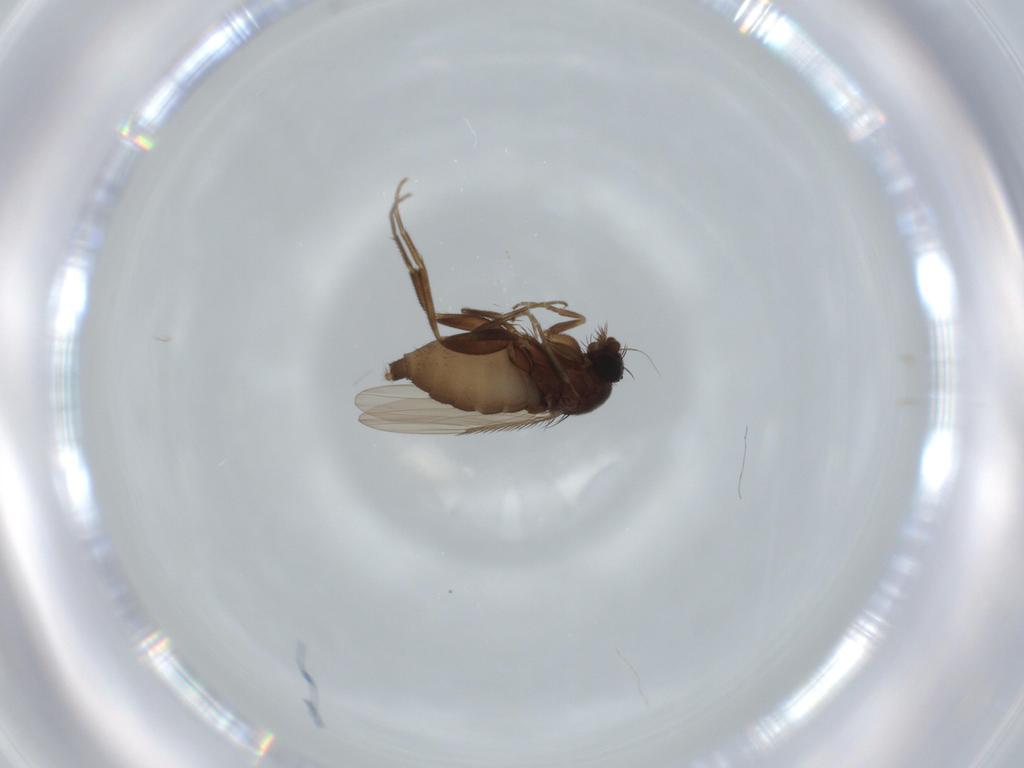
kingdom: Animalia
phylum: Arthropoda
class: Insecta
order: Diptera
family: Phoridae
